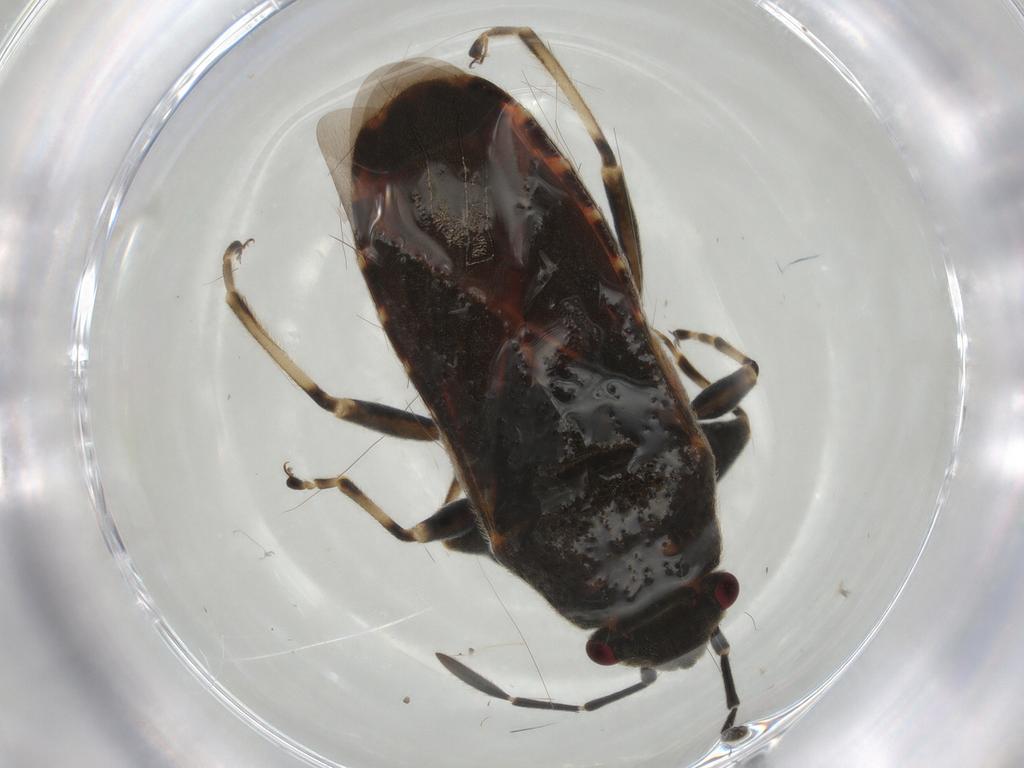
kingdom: Animalia
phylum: Arthropoda
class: Insecta
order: Hemiptera
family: Lygaeidae
